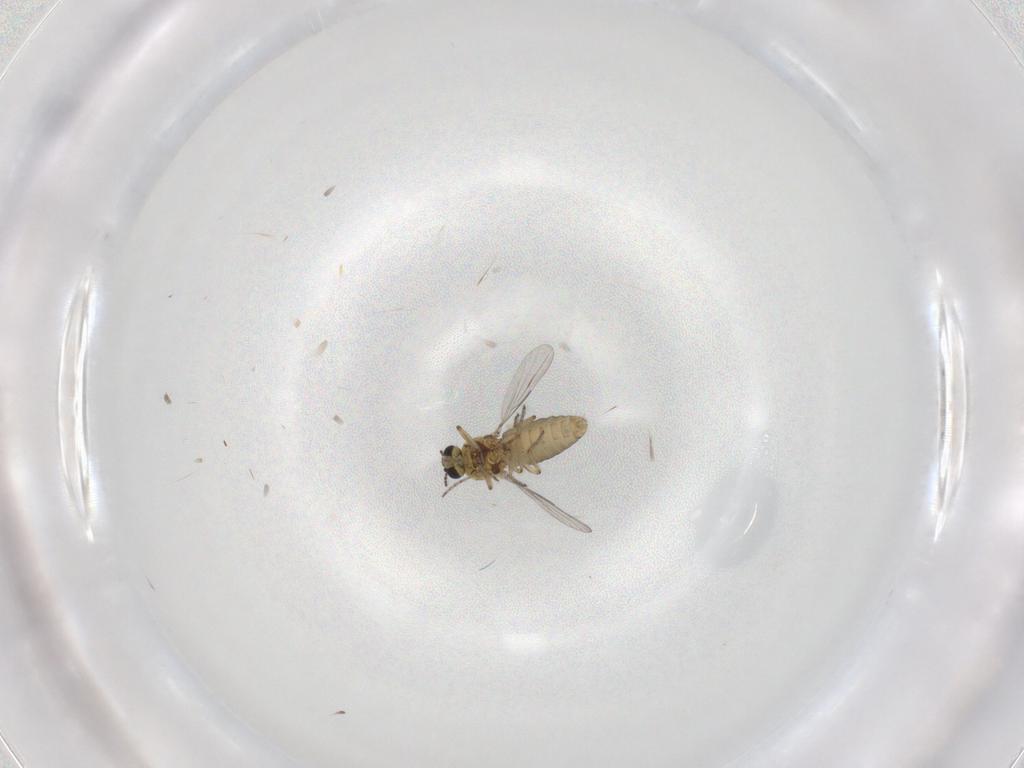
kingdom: Animalia
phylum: Arthropoda
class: Insecta
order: Diptera
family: Ceratopogonidae
